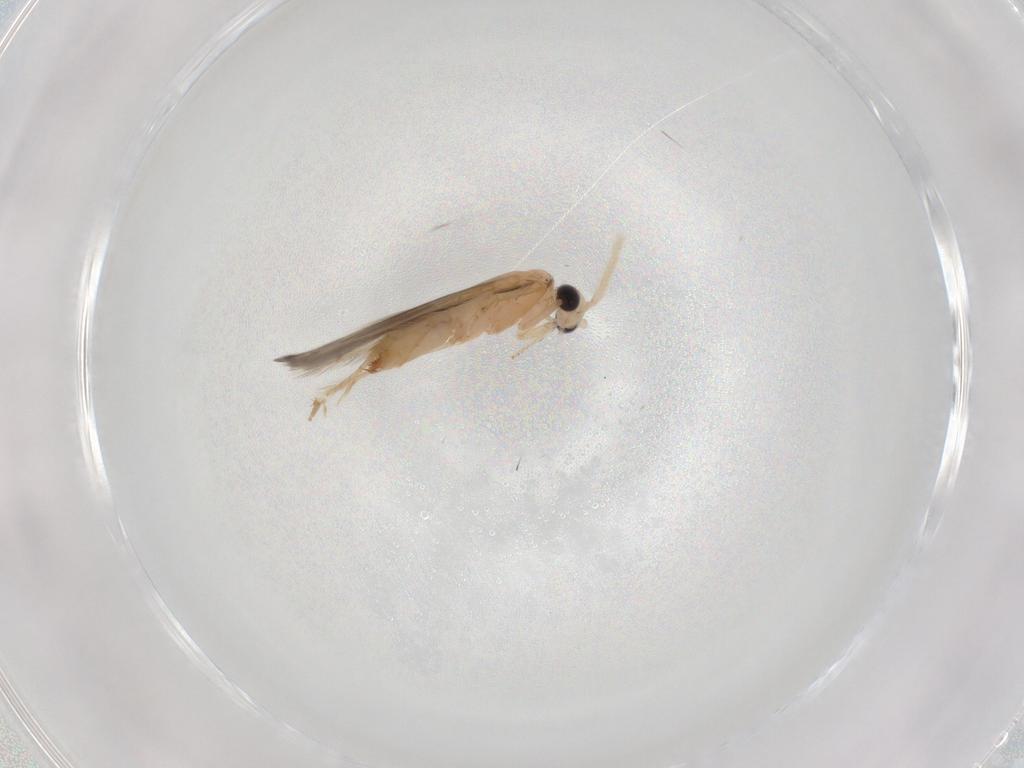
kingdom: Animalia
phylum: Arthropoda
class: Insecta
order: Trichoptera
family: Hydroptilidae
